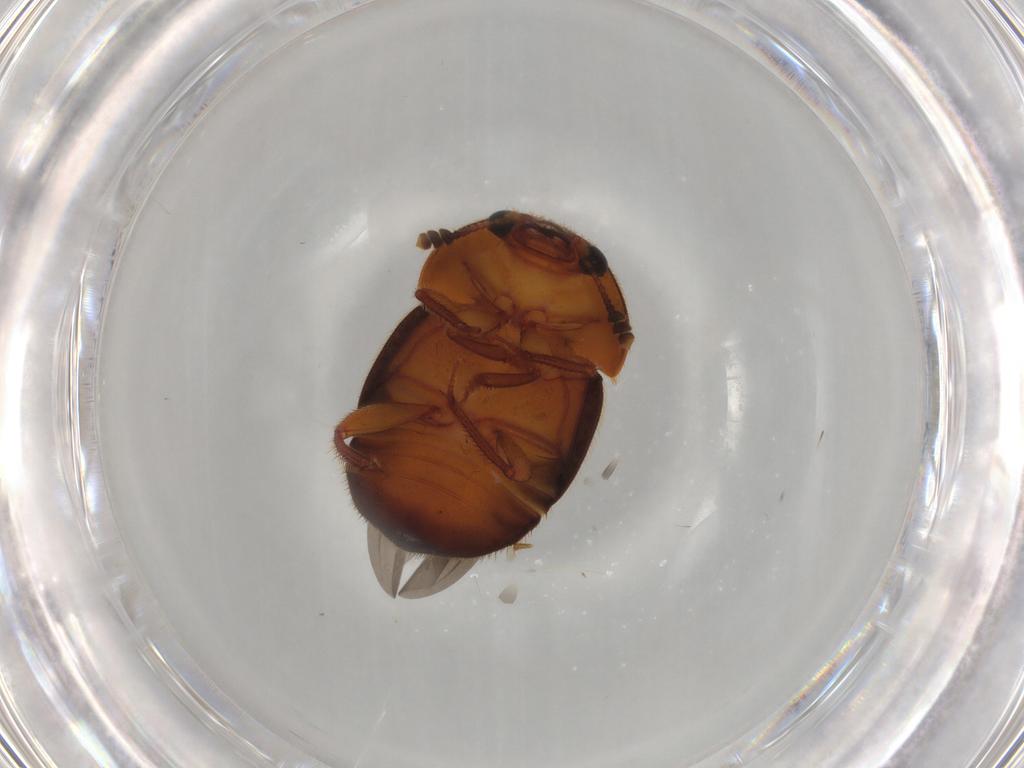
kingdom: Animalia
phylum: Arthropoda
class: Insecta
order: Coleoptera
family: Nitidulidae
